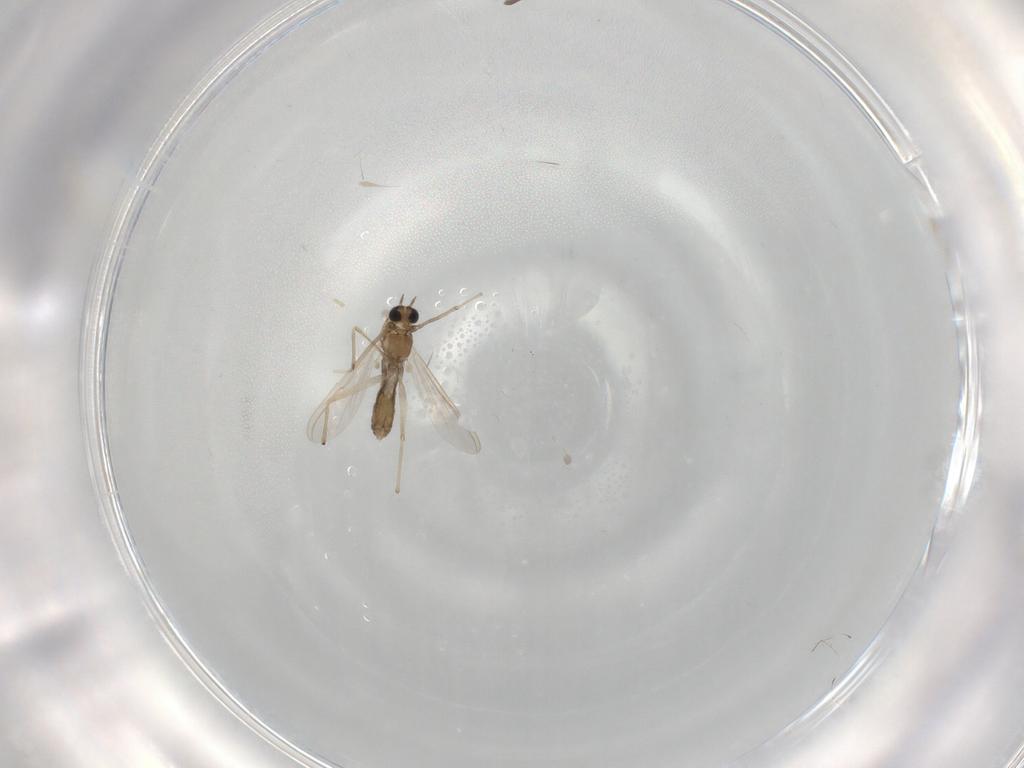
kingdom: Animalia
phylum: Arthropoda
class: Insecta
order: Diptera
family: Chironomidae
